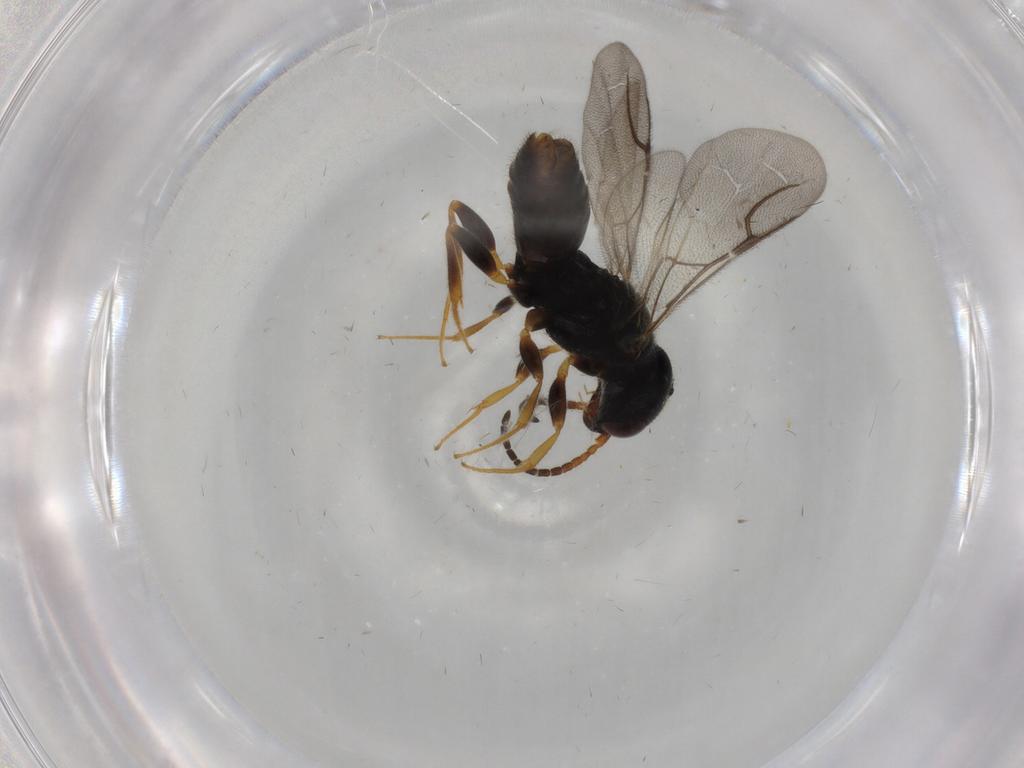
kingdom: Animalia
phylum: Arthropoda
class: Insecta
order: Hymenoptera
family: Bethylidae
